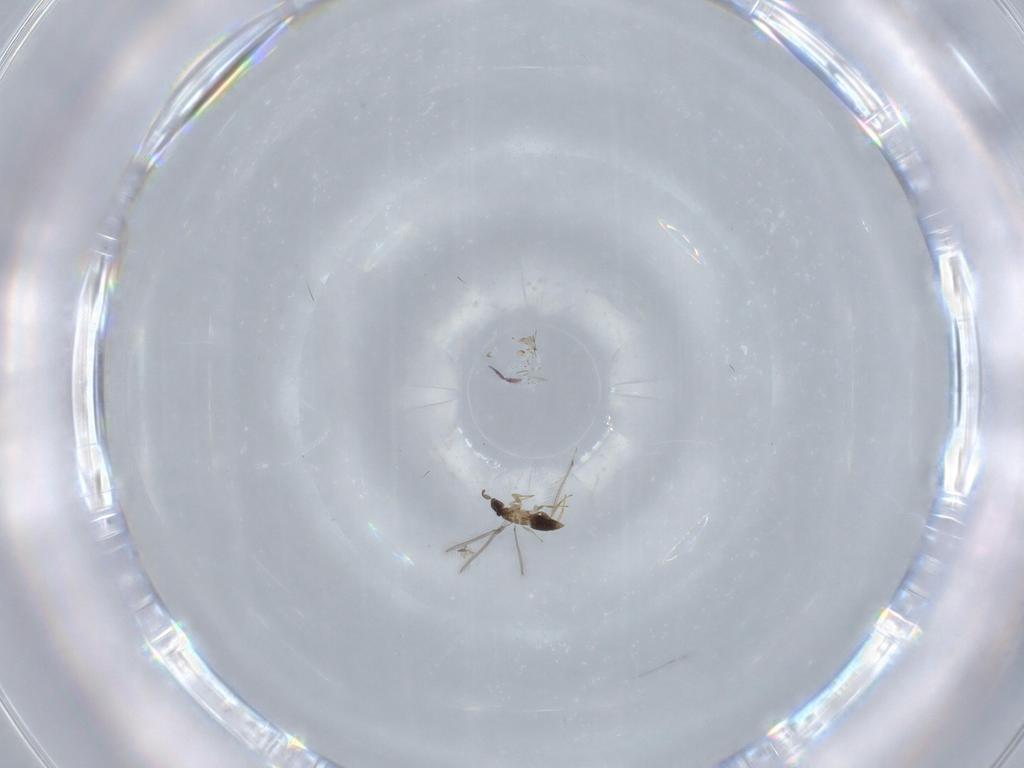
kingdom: Animalia
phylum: Arthropoda
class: Insecta
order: Hymenoptera
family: Mymaridae
